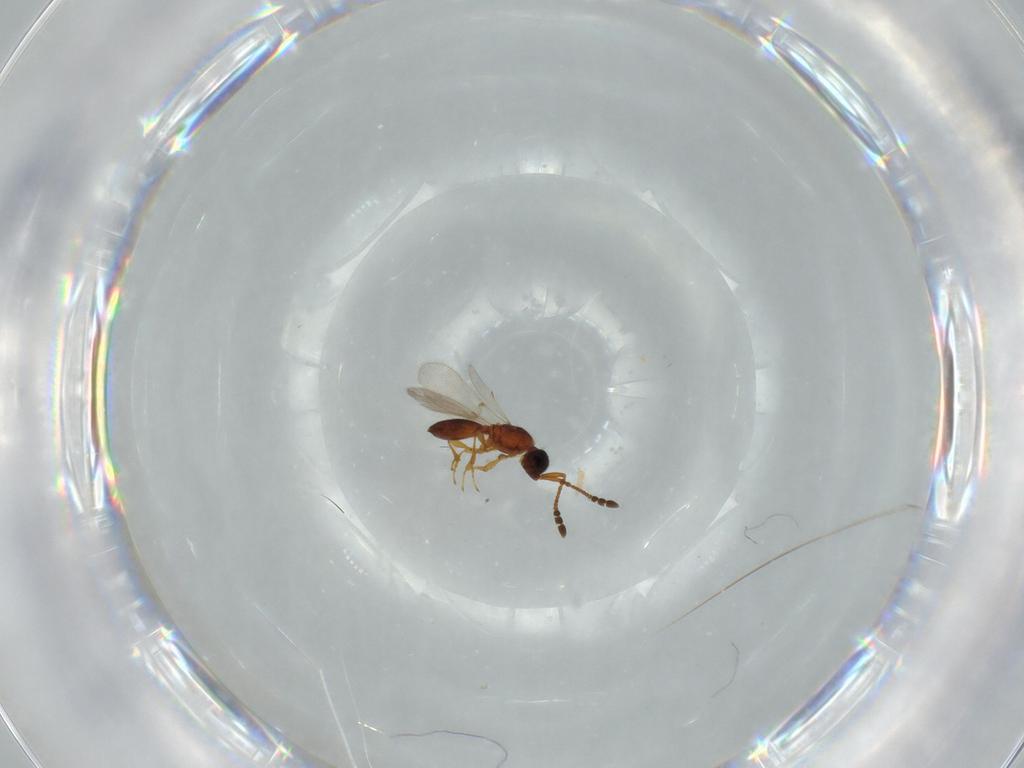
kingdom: Animalia
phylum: Arthropoda
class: Insecta
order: Hymenoptera
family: Diapriidae
